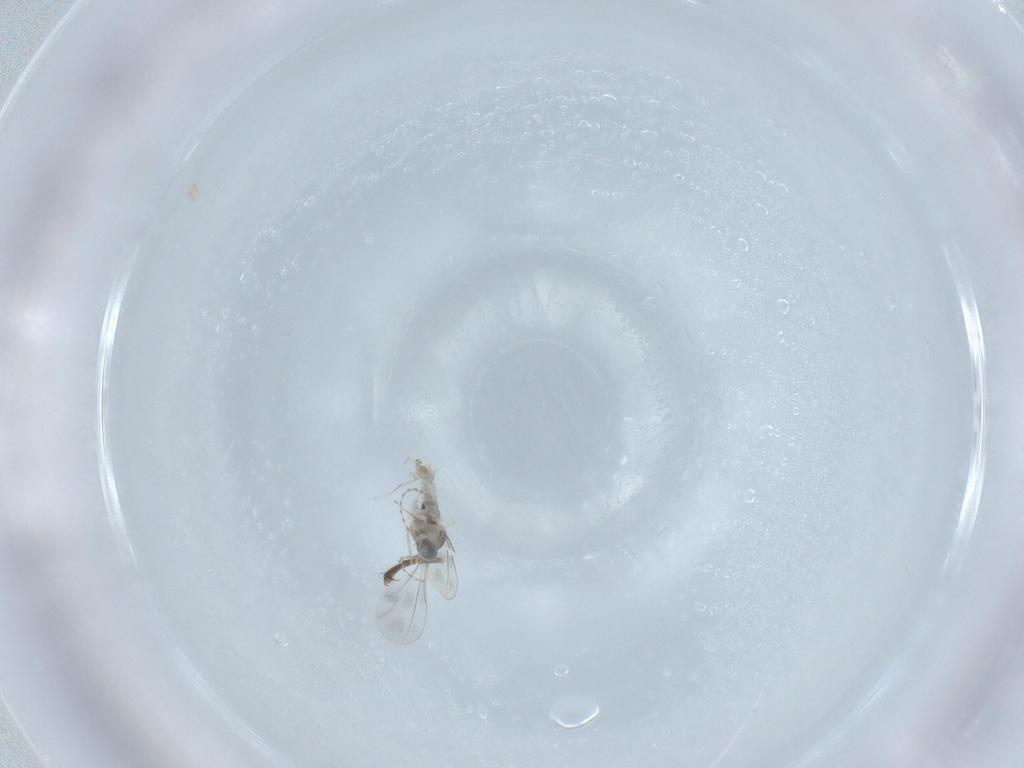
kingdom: Animalia
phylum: Arthropoda
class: Insecta
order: Diptera
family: Cecidomyiidae
